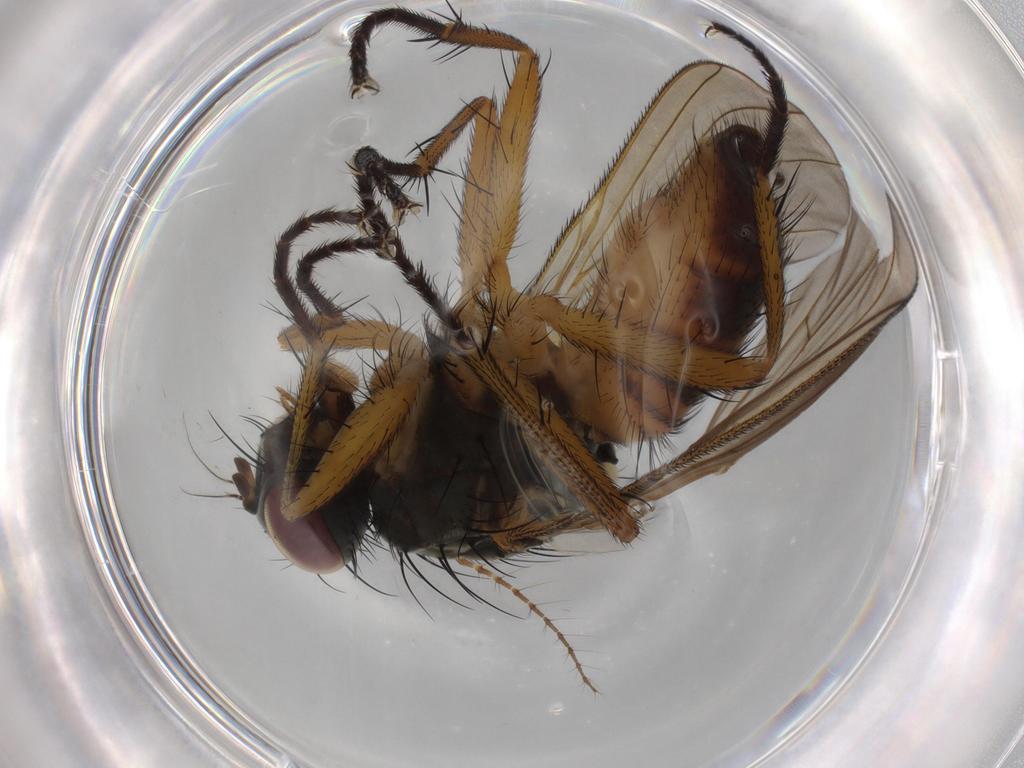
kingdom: Animalia
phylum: Arthropoda
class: Insecta
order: Diptera
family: Muscidae
